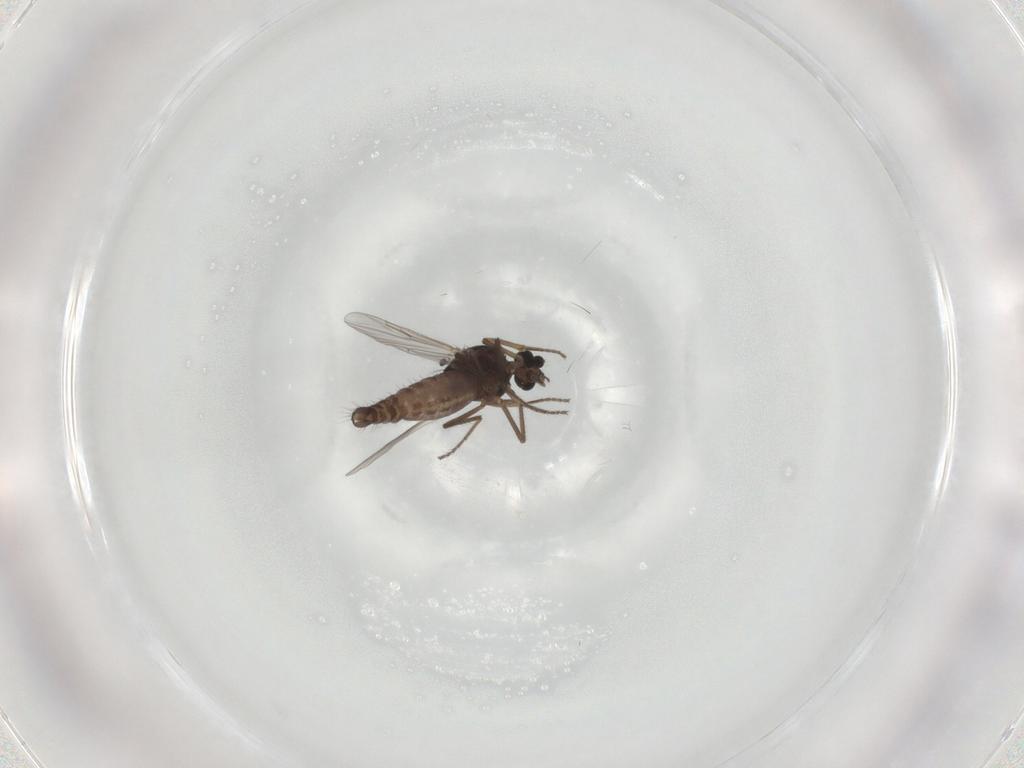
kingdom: Animalia
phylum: Arthropoda
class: Insecta
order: Diptera
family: Ceratopogonidae
